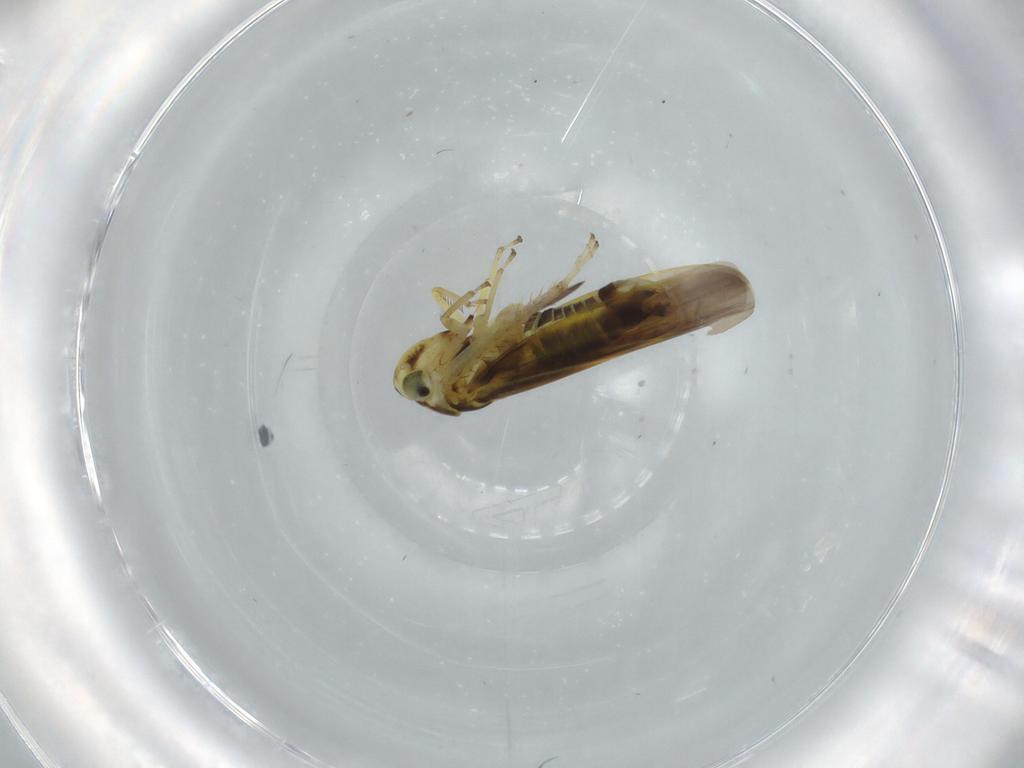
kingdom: Animalia
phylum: Arthropoda
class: Insecta
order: Hemiptera
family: Cicadellidae
